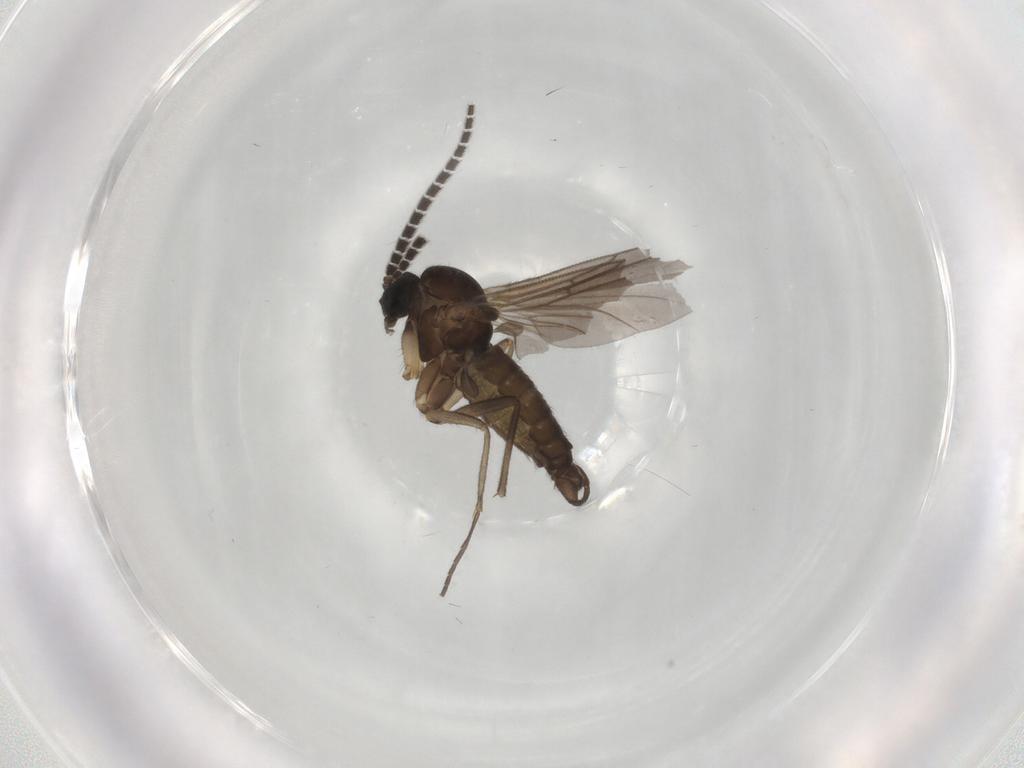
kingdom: Animalia
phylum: Arthropoda
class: Insecta
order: Diptera
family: Sciaridae
